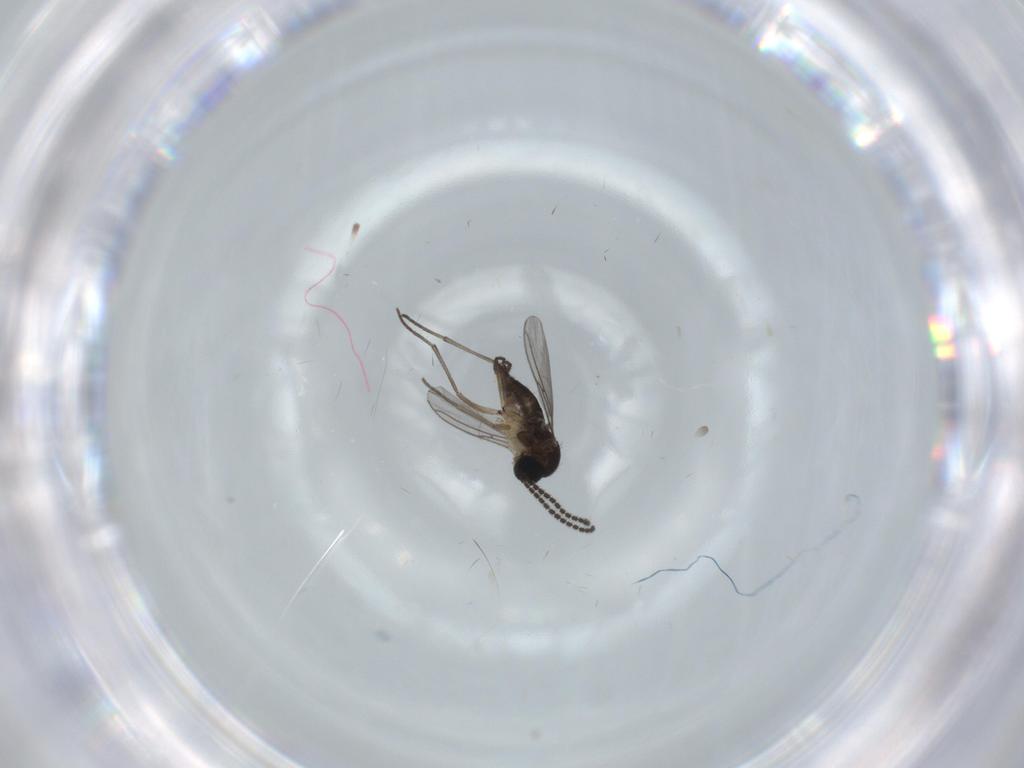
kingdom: Animalia
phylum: Arthropoda
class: Insecta
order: Diptera
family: Sciaridae
